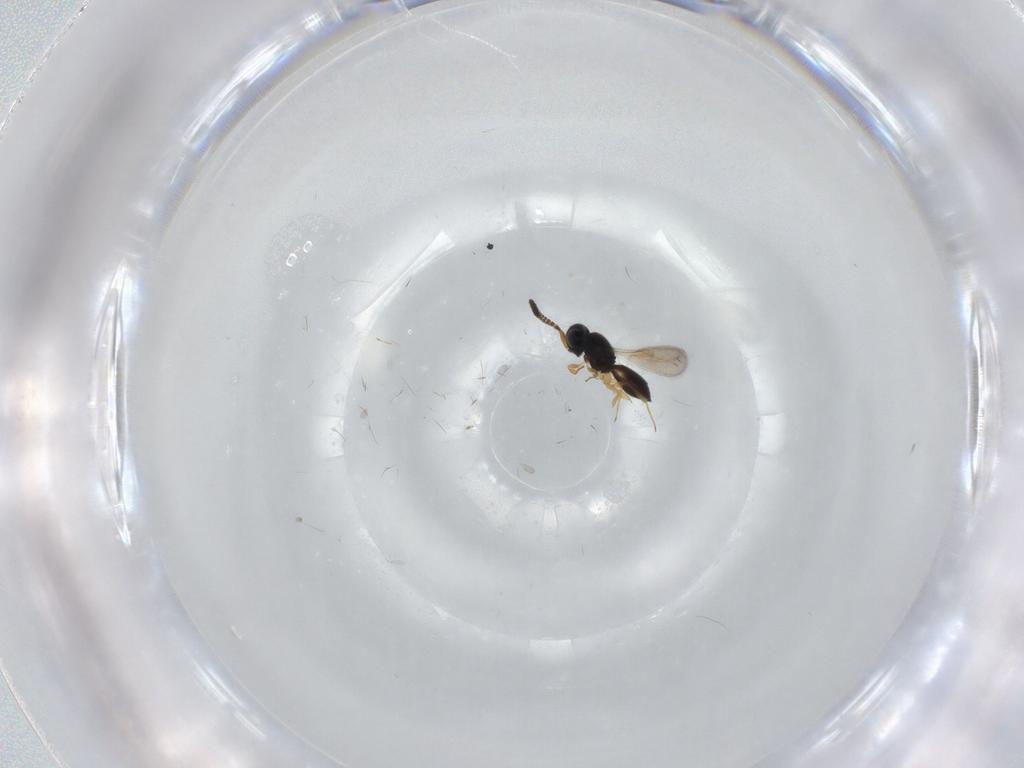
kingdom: Animalia
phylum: Arthropoda
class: Insecta
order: Hymenoptera
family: Scelionidae
